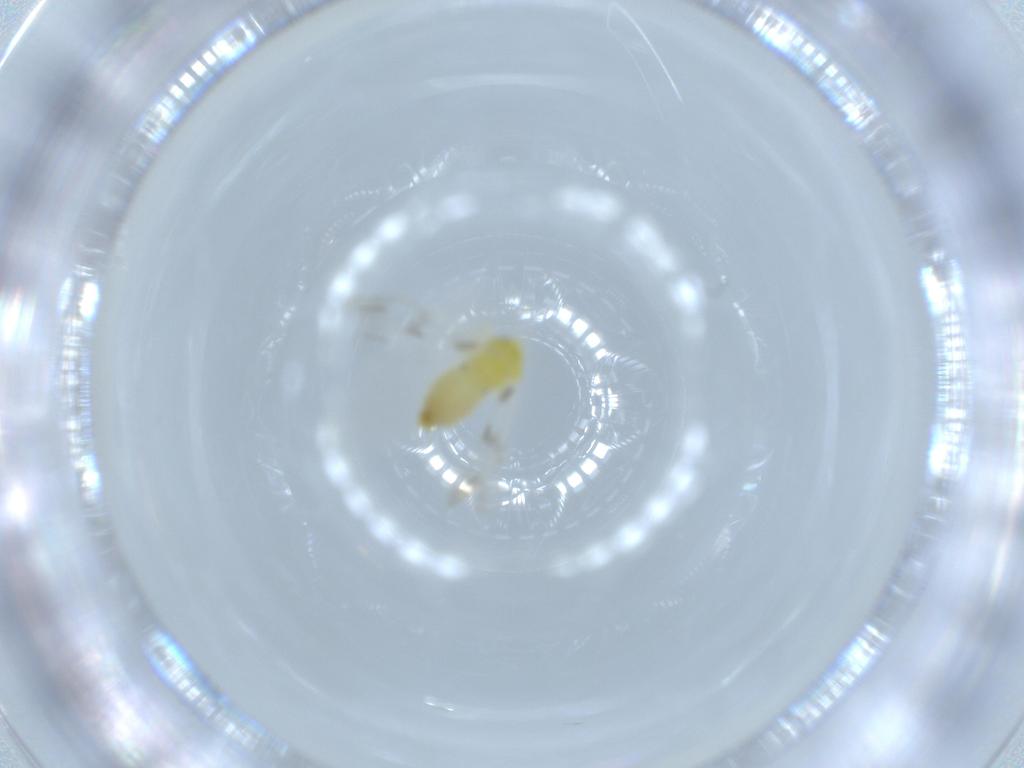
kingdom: Animalia
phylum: Arthropoda
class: Insecta
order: Hemiptera
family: Aleyrodidae
